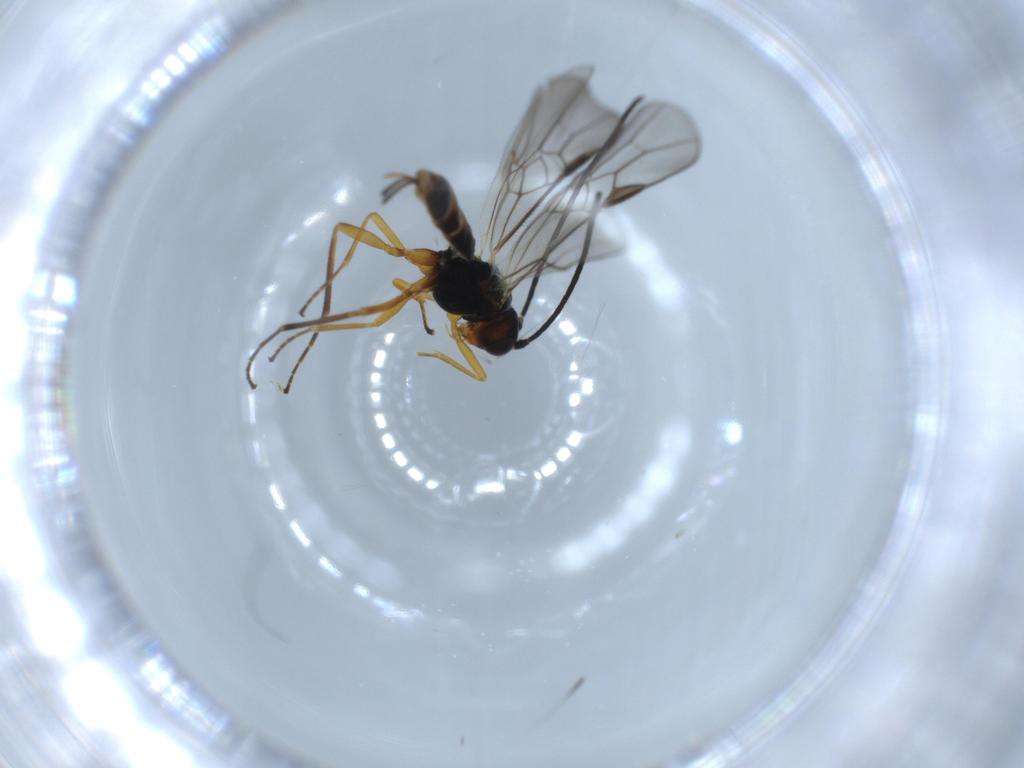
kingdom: Animalia
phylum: Arthropoda
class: Insecta
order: Hymenoptera
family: Braconidae
